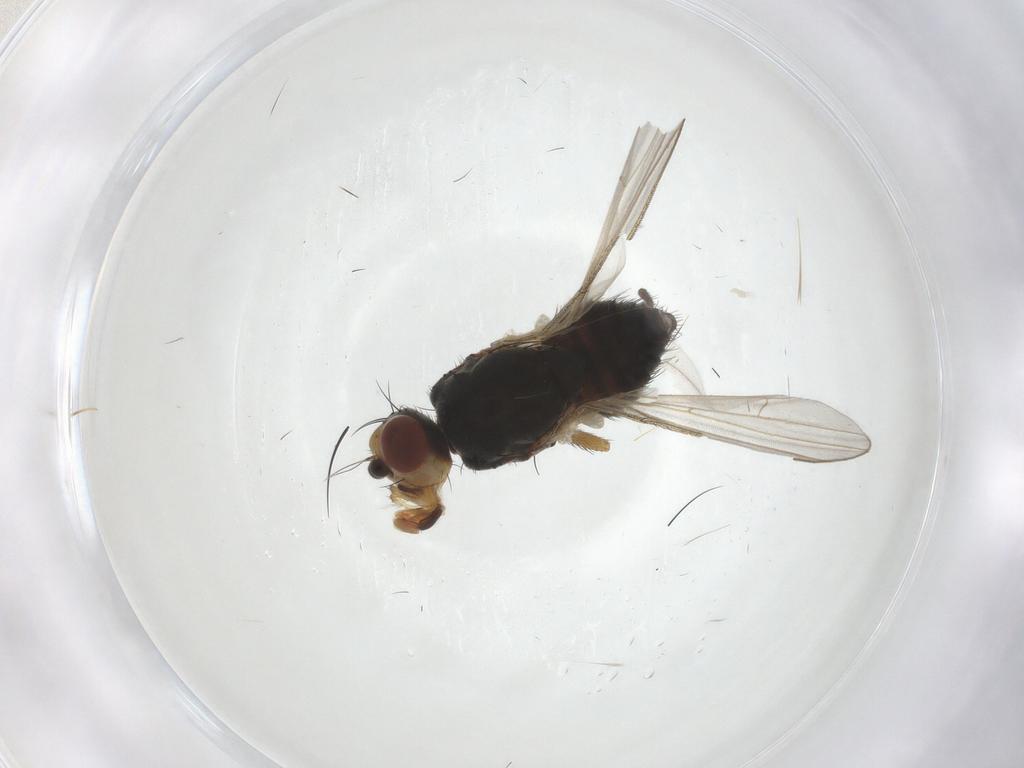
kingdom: Animalia
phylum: Arthropoda
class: Insecta
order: Diptera
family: Heleomyzidae
